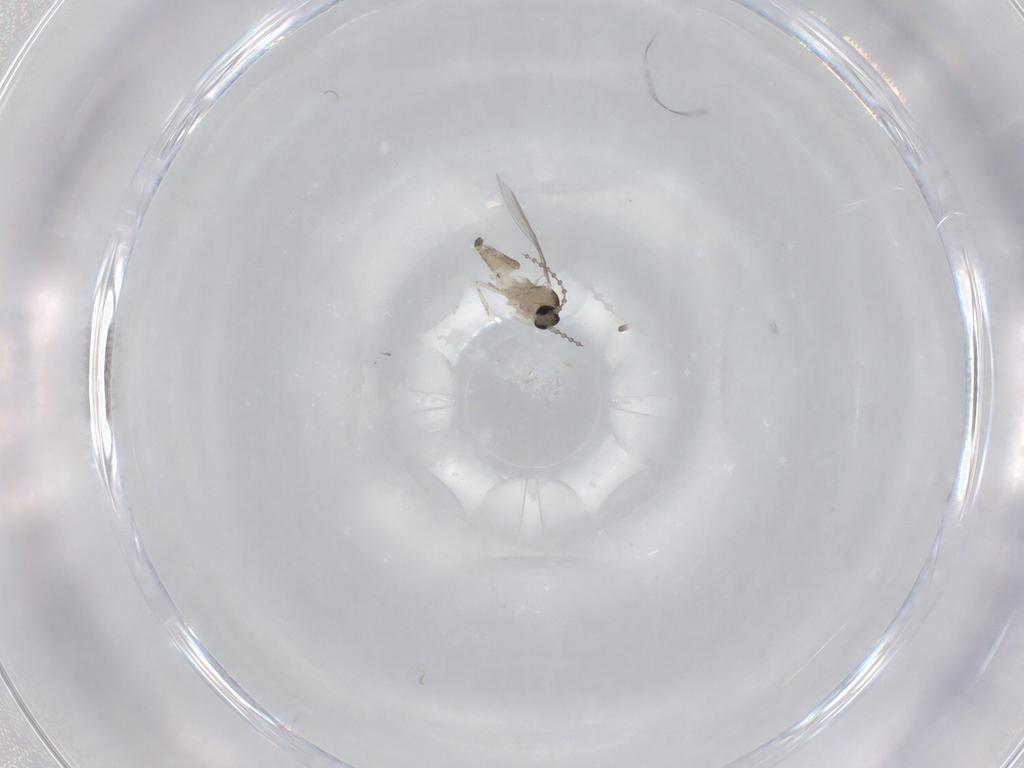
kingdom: Animalia
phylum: Arthropoda
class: Insecta
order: Diptera
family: Cecidomyiidae
